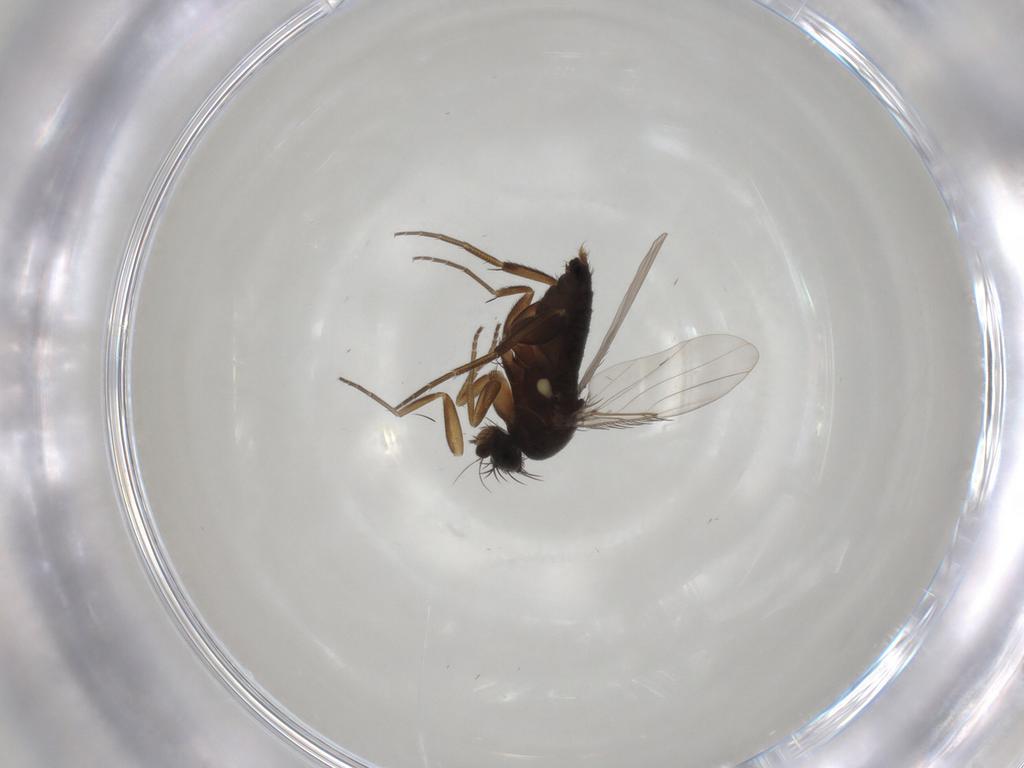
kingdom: Animalia
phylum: Arthropoda
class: Insecta
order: Diptera
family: Phoridae
